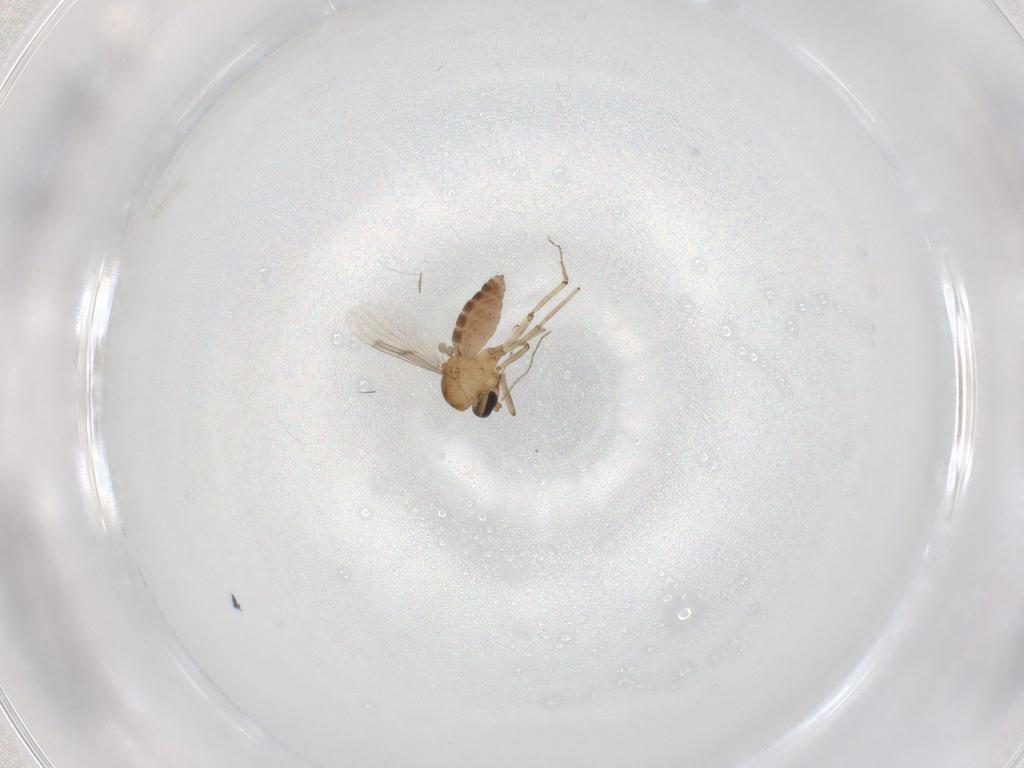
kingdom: Animalia
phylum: Arthropoda
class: Insecta
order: Diptera
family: Ceratopogonidae
